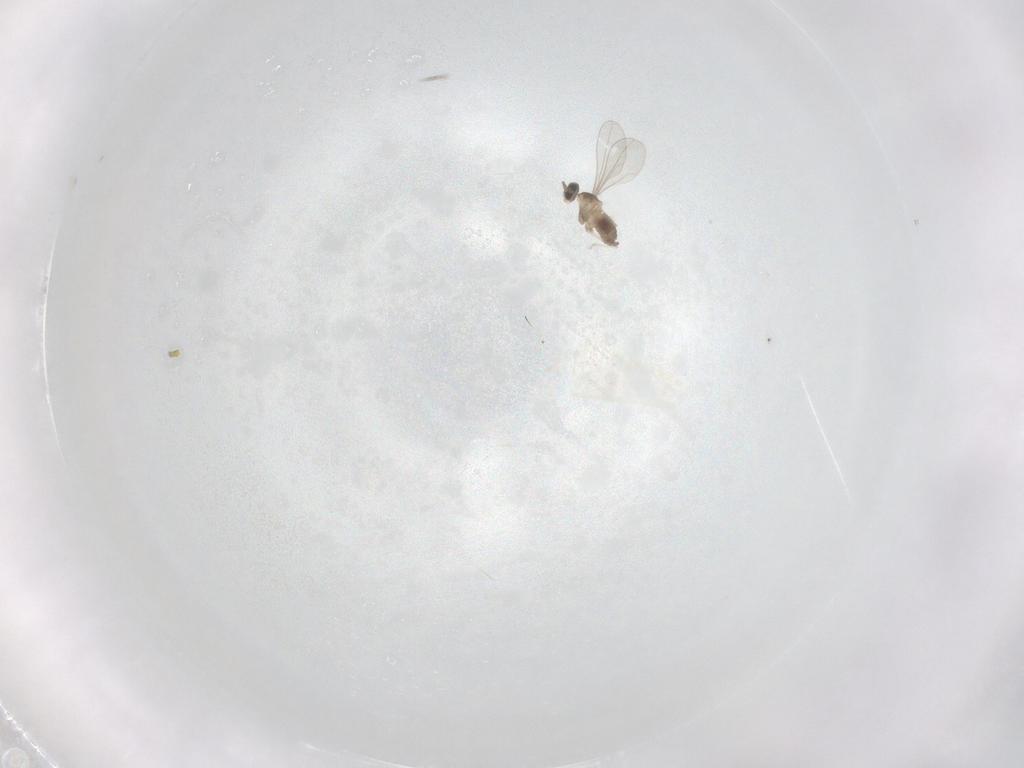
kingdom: Animalia
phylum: Arthropoda
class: Insecta
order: Diptera
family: Cecidomyiidae
